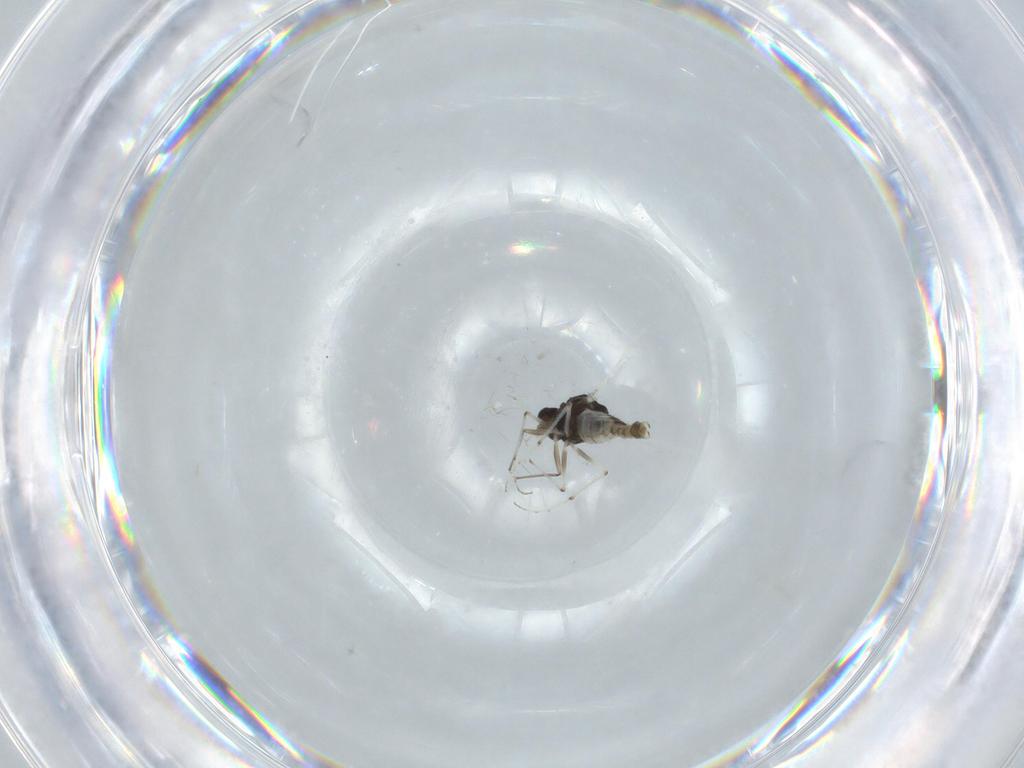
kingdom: Animalia
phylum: Arthropoda
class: Insecta
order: Diptera
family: Chironomidae
